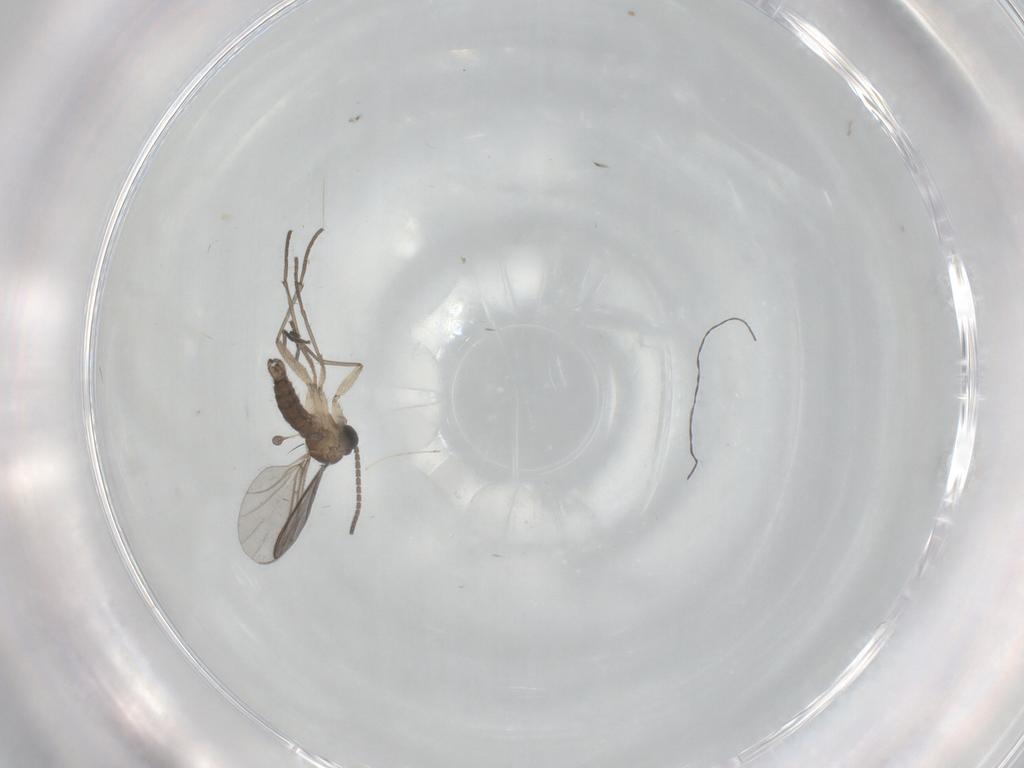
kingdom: Animalia
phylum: Arthropoda
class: Insecta
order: Diptera
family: Sciaridae
